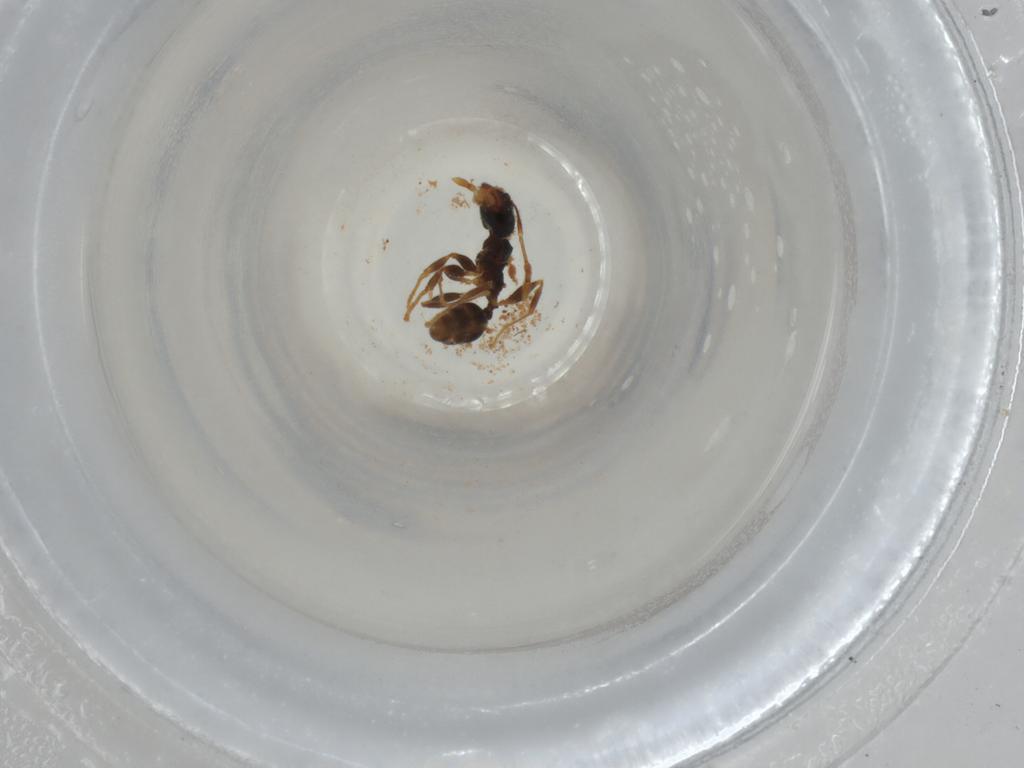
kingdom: Animalia
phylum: Arthropoda
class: Insecta
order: Hymenoptera
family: Formicidae
